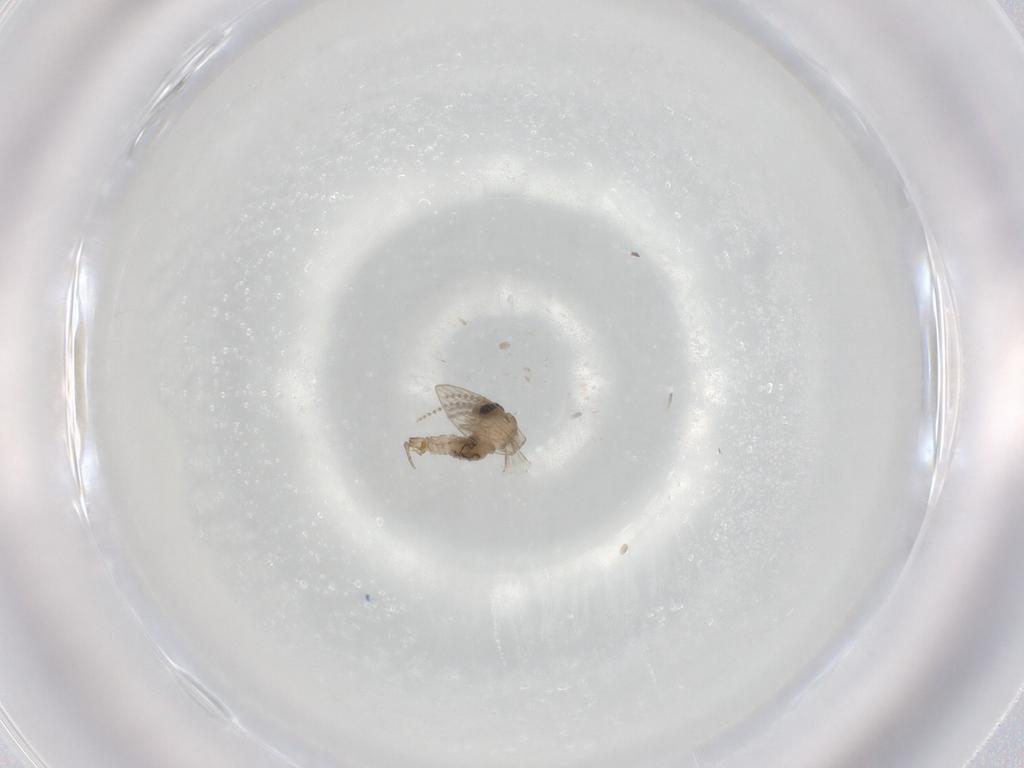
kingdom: Animalia
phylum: Arthropoda
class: Insecta
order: Diptera
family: Psychodidae
